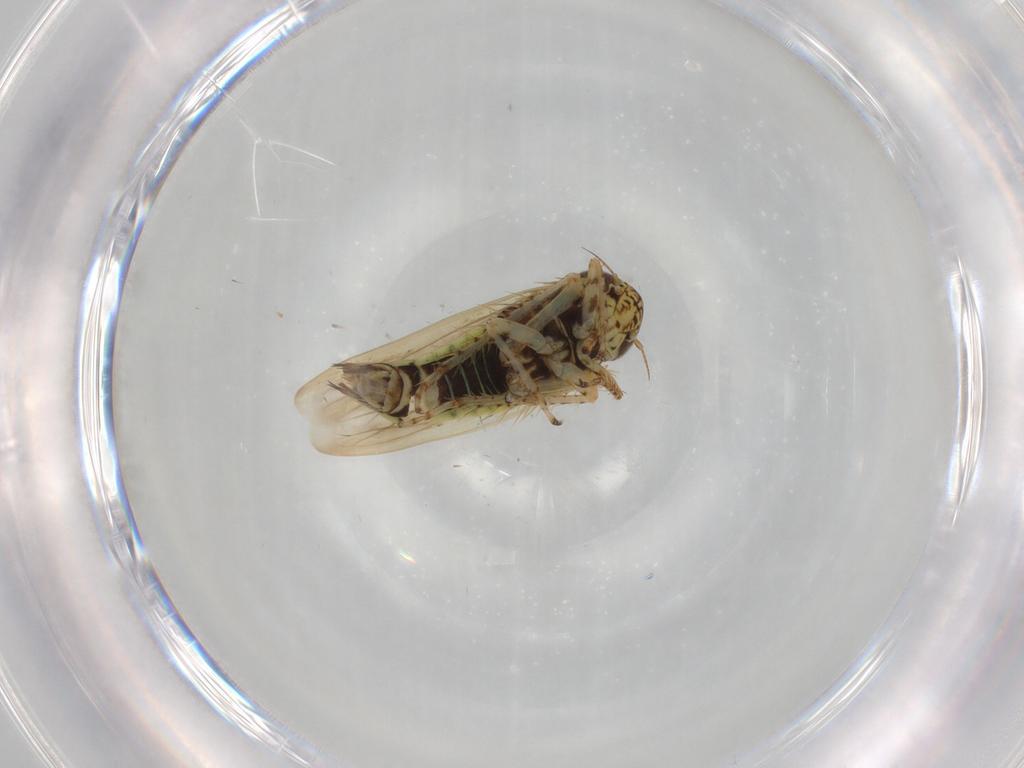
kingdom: Animalia
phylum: Arthropoda
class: Insecta
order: Hemiptera
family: Cicadellidae
